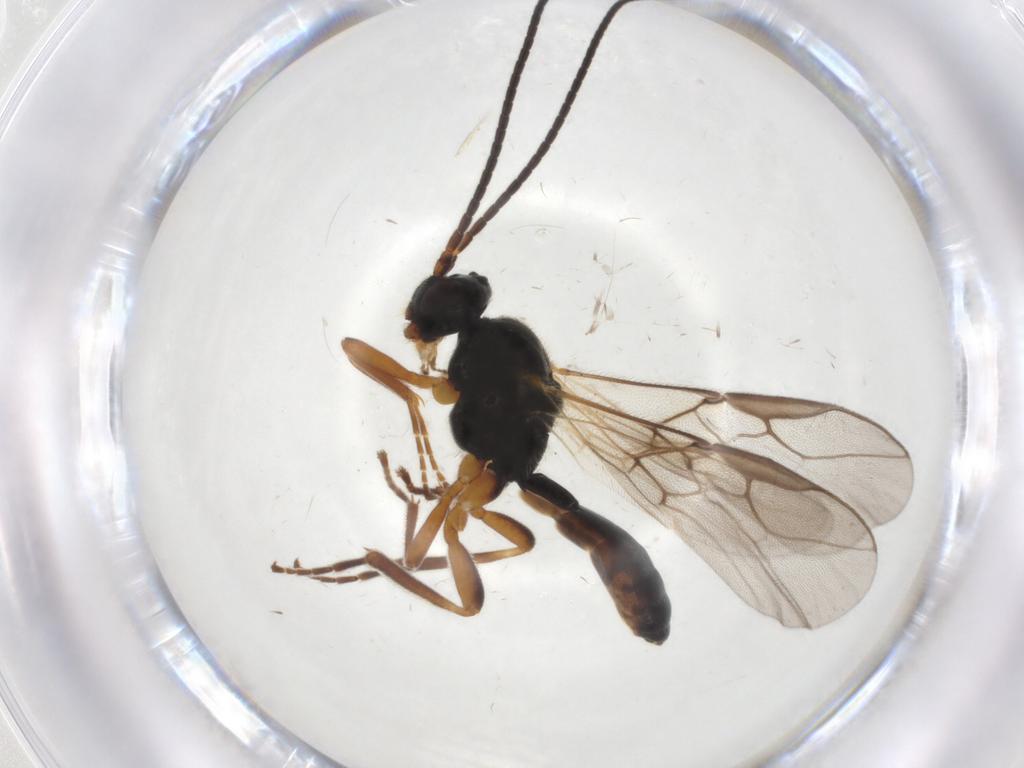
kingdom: Animalia
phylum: Arthropoda
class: Insecta
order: Hymenoptera
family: Braconidae
